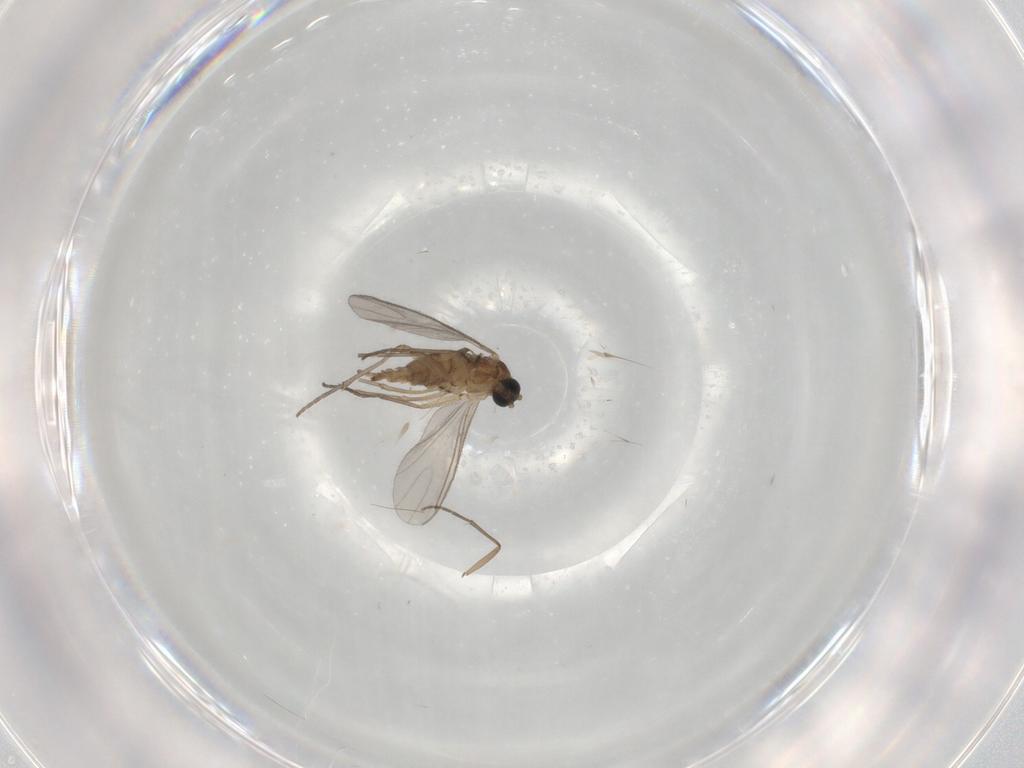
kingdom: Animalia
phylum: Arthropoda
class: Insecta
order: Diptera
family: Sciaridae
